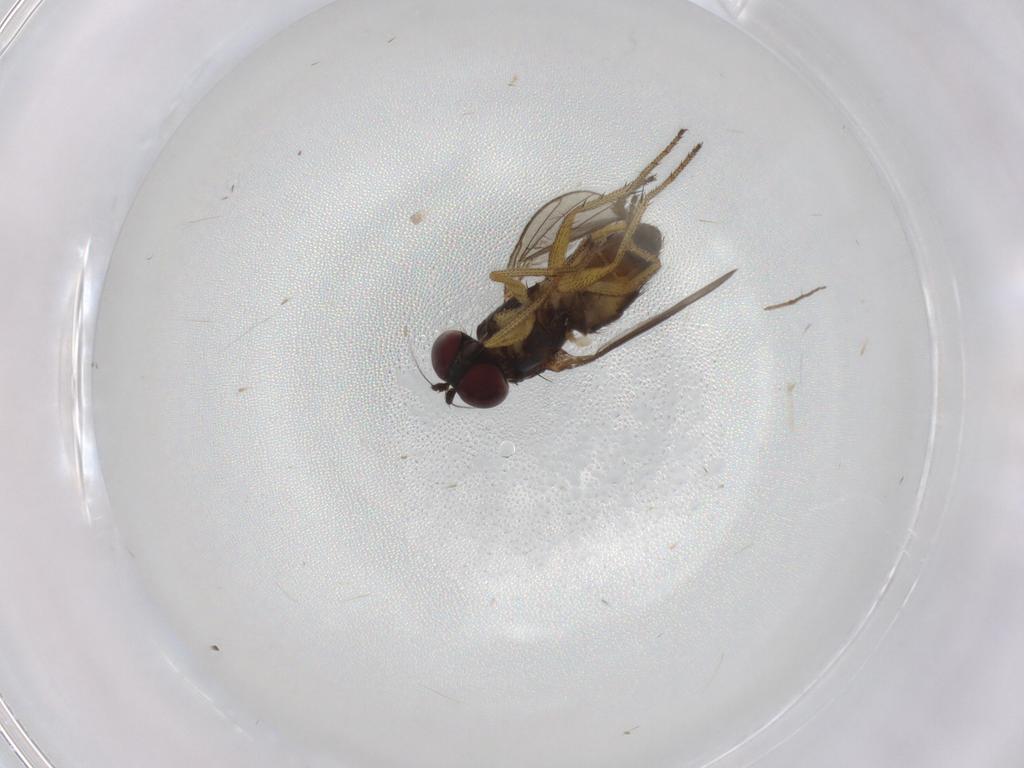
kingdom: Animalia
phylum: Arthropoda
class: Insecta
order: Diptera
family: Dolichopodidae
